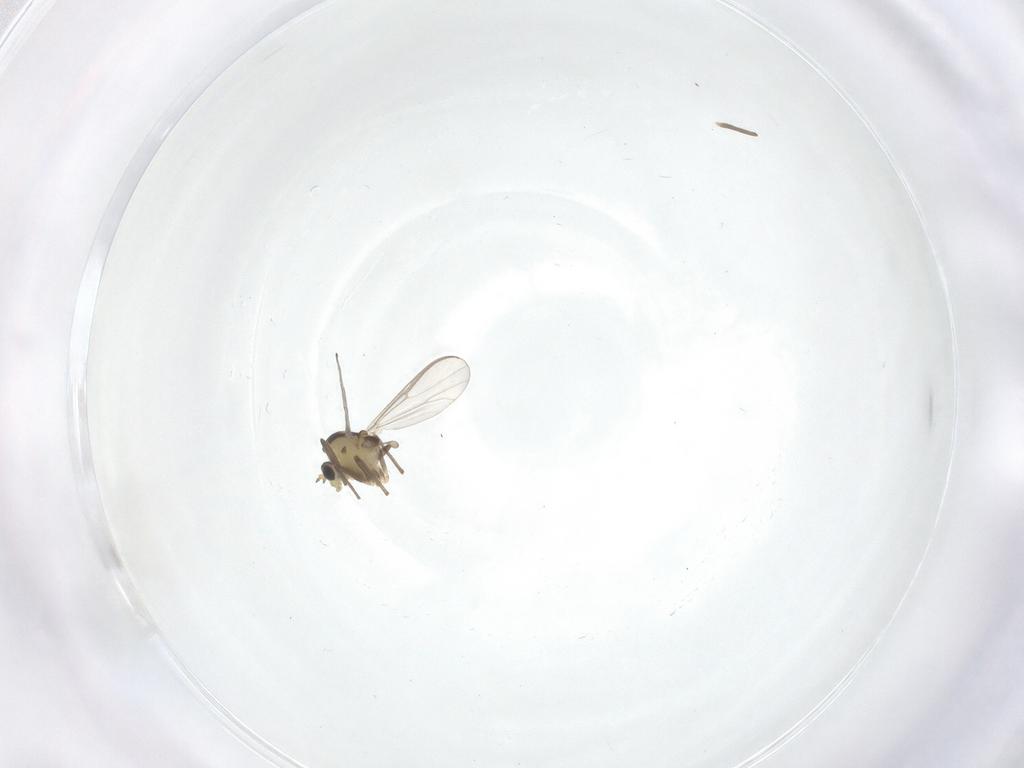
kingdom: Animalia
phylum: Arthropoda
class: Insecta
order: Diptera
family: Chironomidae
